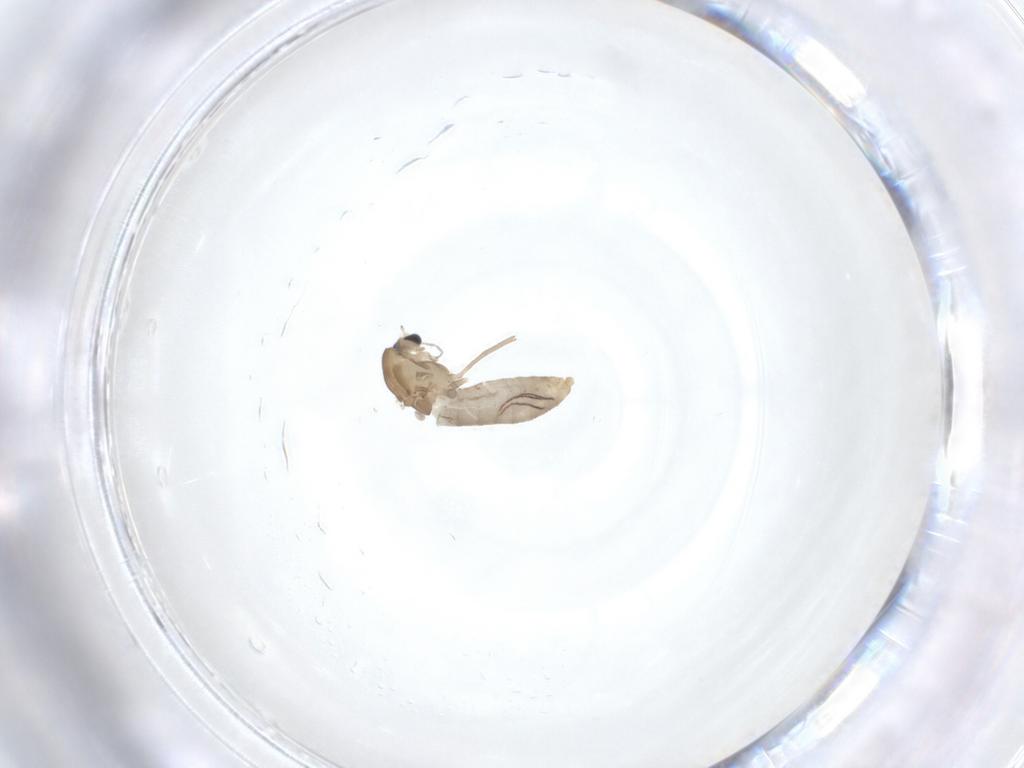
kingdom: Animalia
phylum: Arthropoda
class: Insecta
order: Diptera
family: Chironomidae
